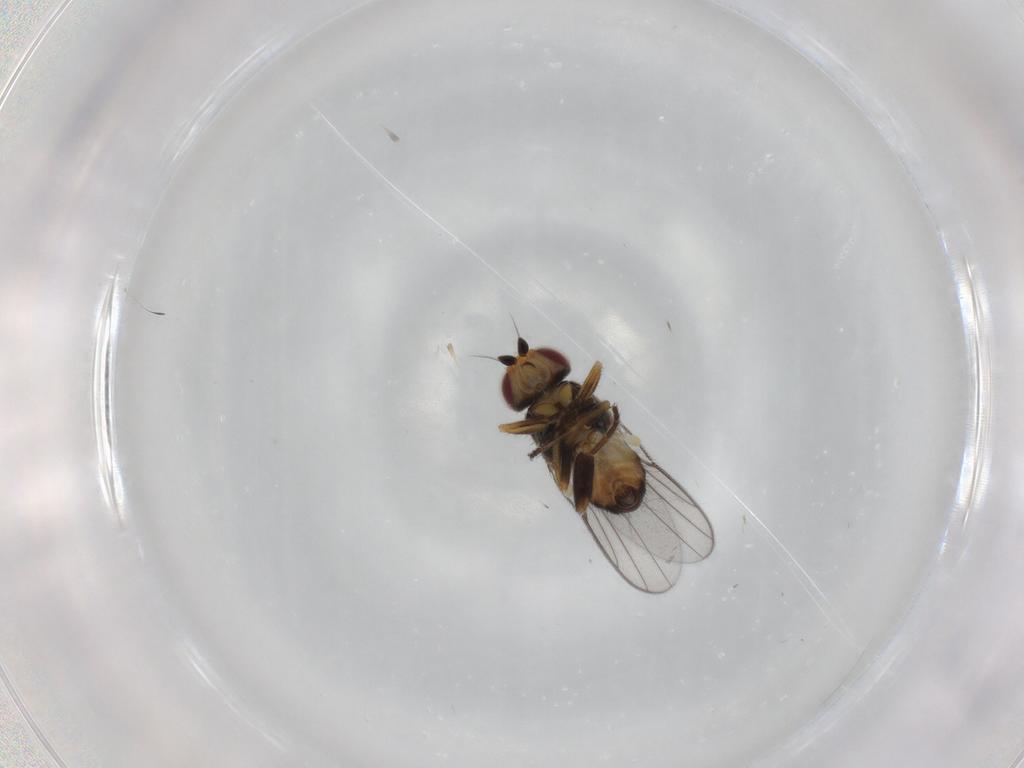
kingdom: Animalia
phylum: Arthropoda
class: Insecta
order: Diptera
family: Chloropidae
